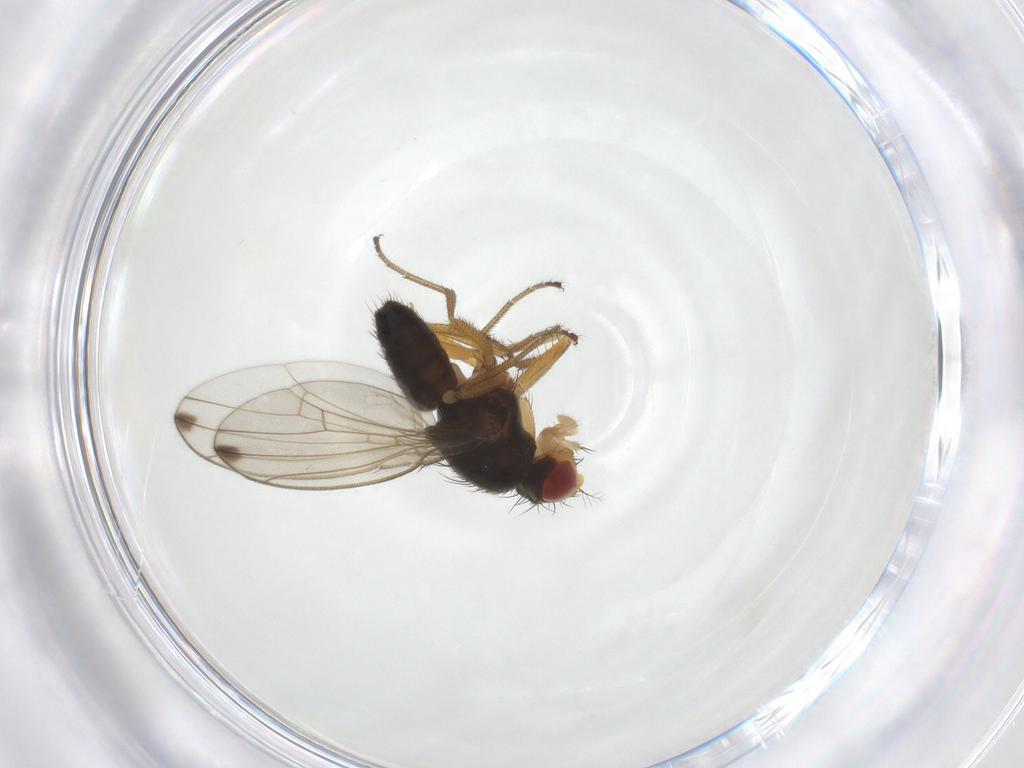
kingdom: Animalia
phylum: Arthropoda
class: Insecta
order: Diptera
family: Drosophilidae
